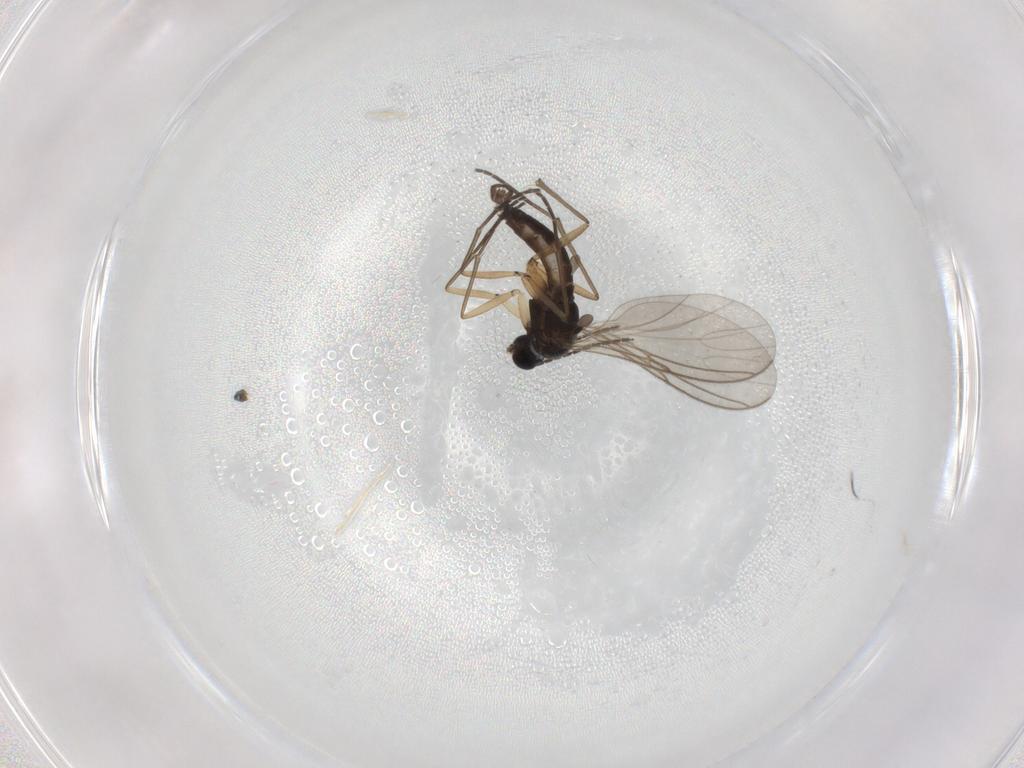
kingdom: Animalia
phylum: Arthropoda
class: Insecta
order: Diptera
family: Sciaridae
